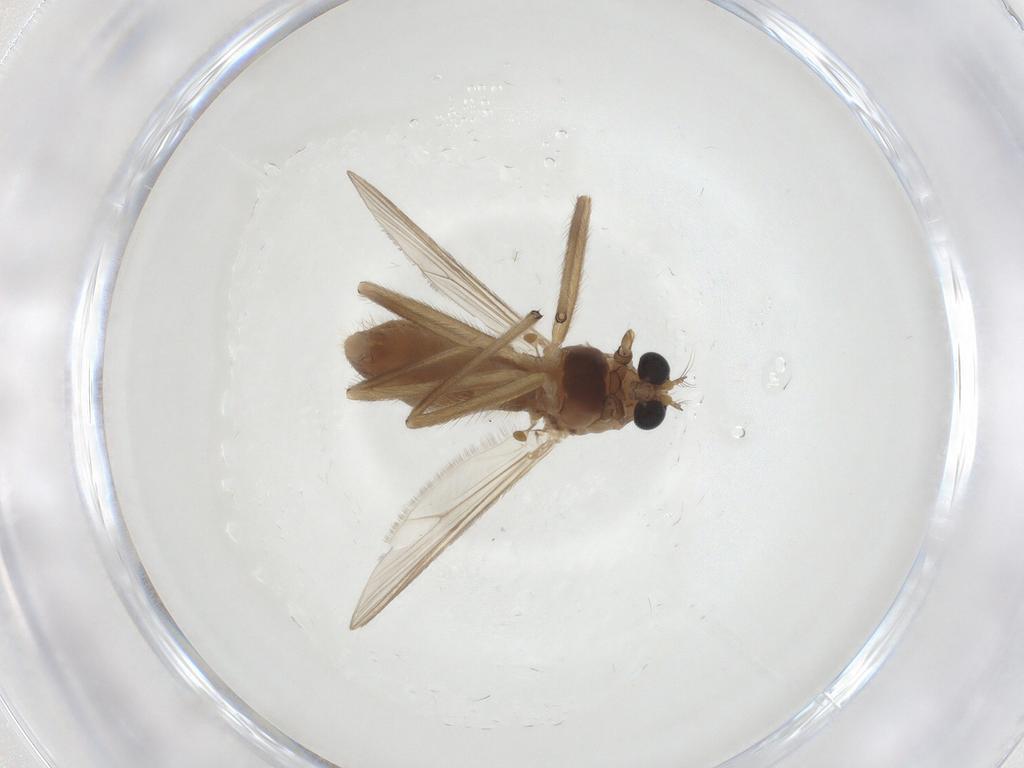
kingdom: Animalia
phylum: Arthropoda
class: Insecta
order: Diptera
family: Chironomidae
